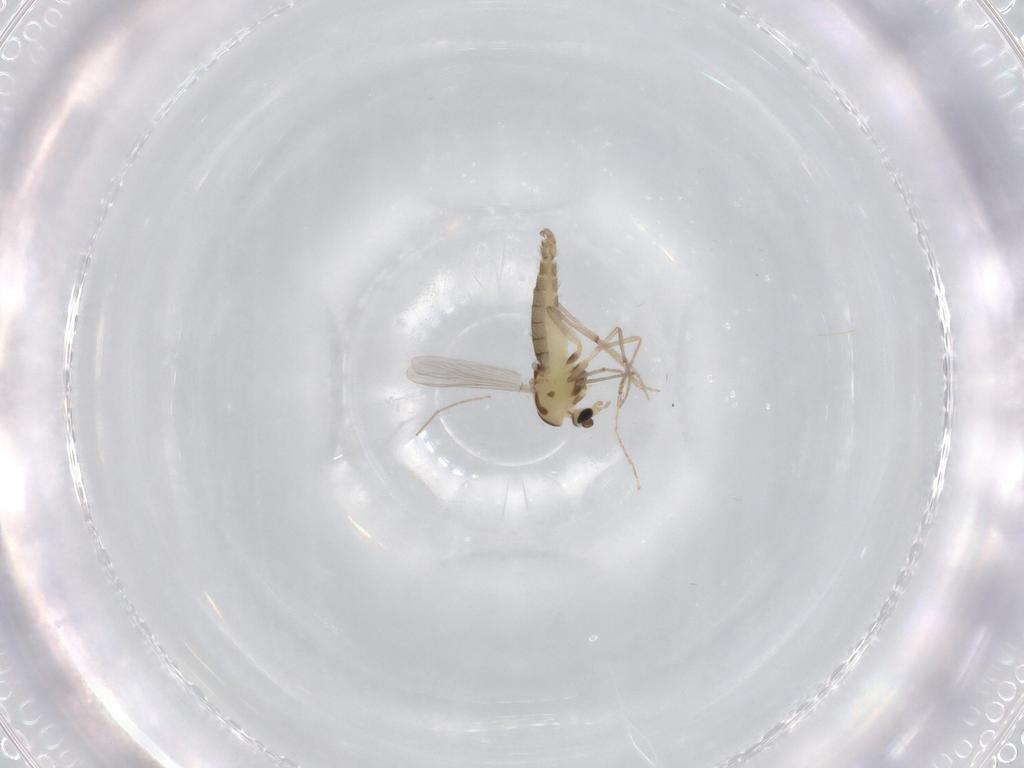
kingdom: Animalia
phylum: Arthropoda
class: Insecta
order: Diptera
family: Chironomidae
